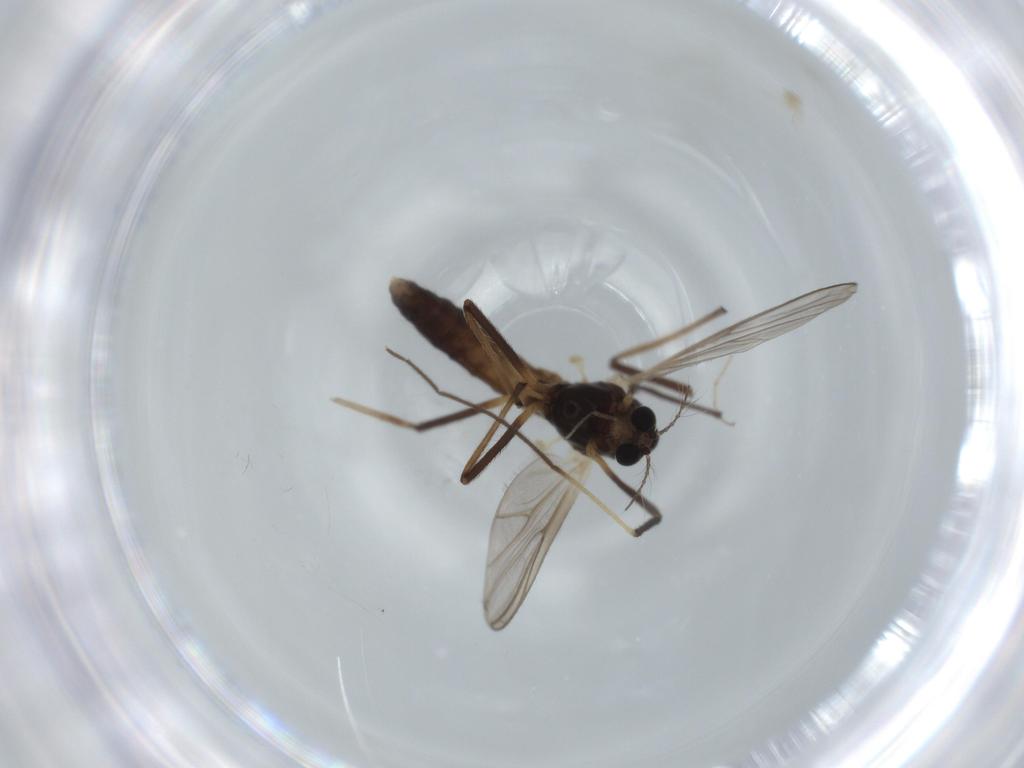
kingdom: Animalia
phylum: Arthropoda
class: Insecta
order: Diptera
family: Chironomidae
